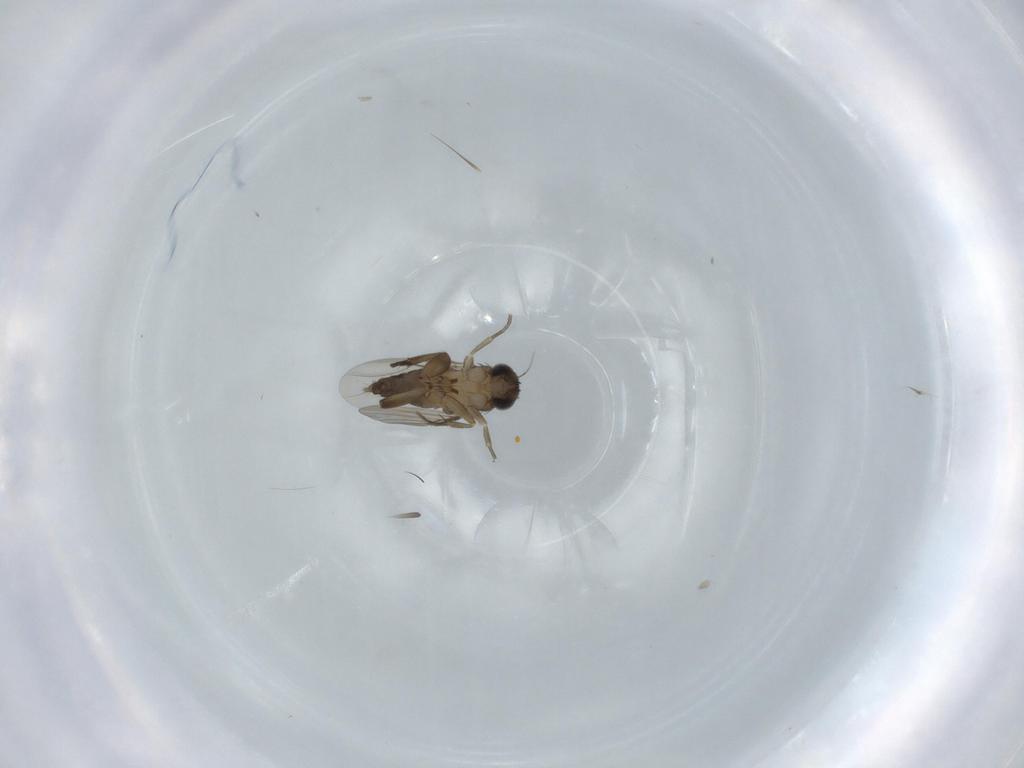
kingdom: Animalia
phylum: Arthropoda
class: Insecta
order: Diptera
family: Phoridae
